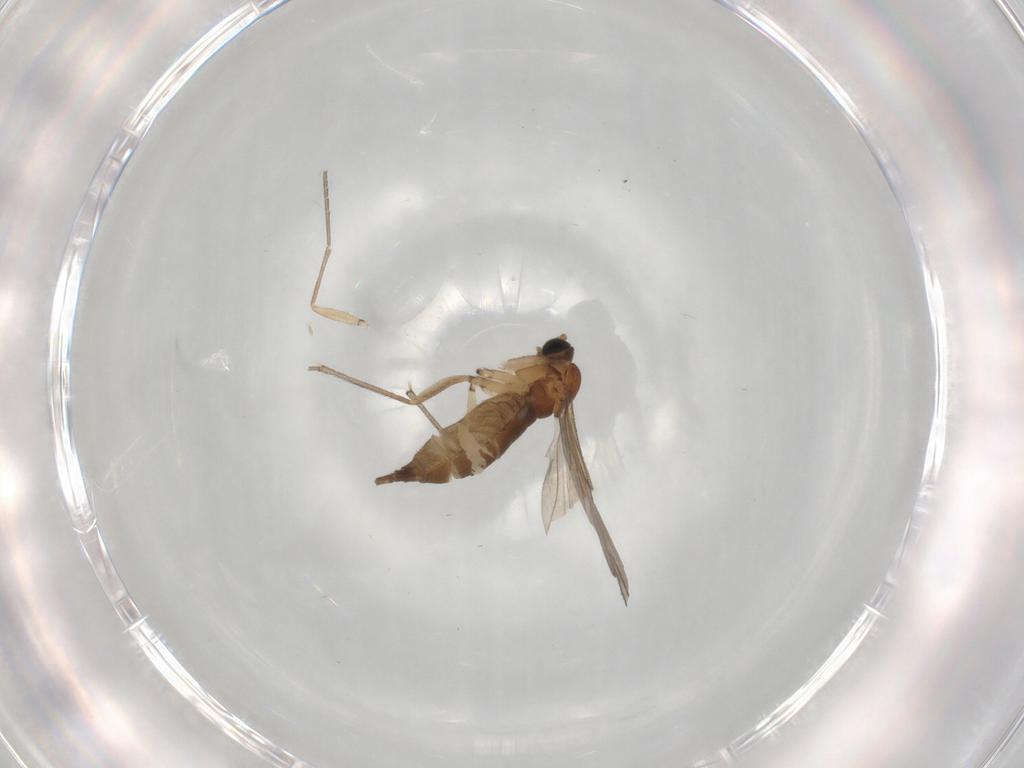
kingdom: Animalia
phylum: Arthropoda
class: Insecta
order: Diptera
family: Sciaridae
